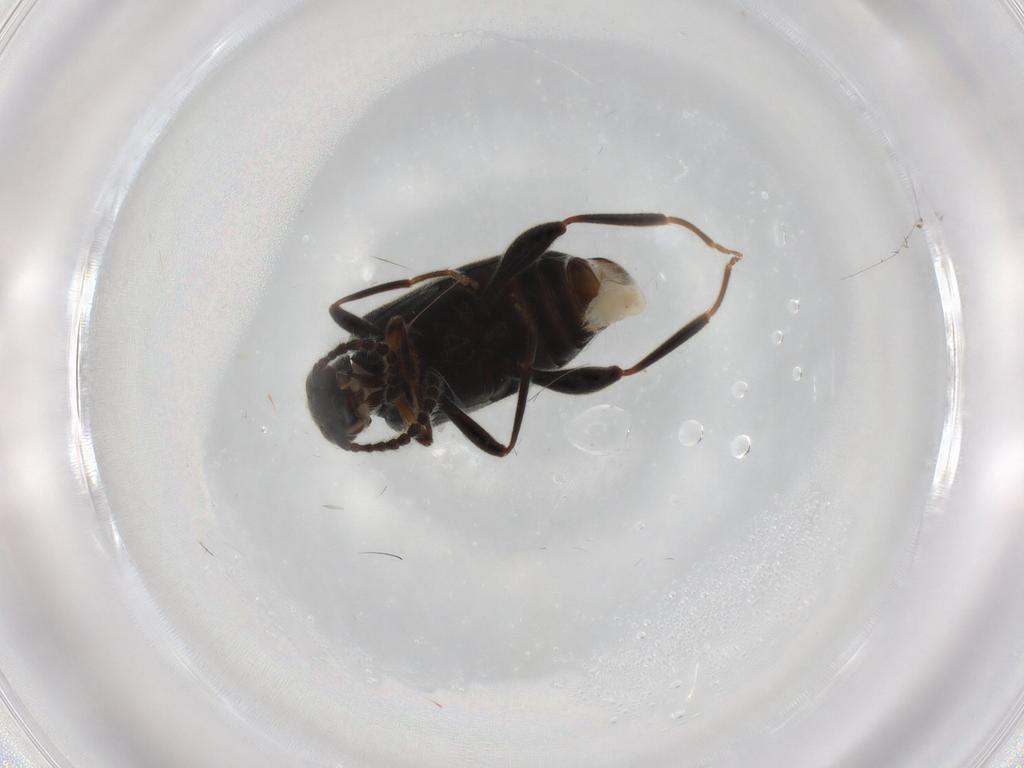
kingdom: Animalia
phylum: Arthropoda
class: Insecta
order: Coleoptera
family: Aderidae
